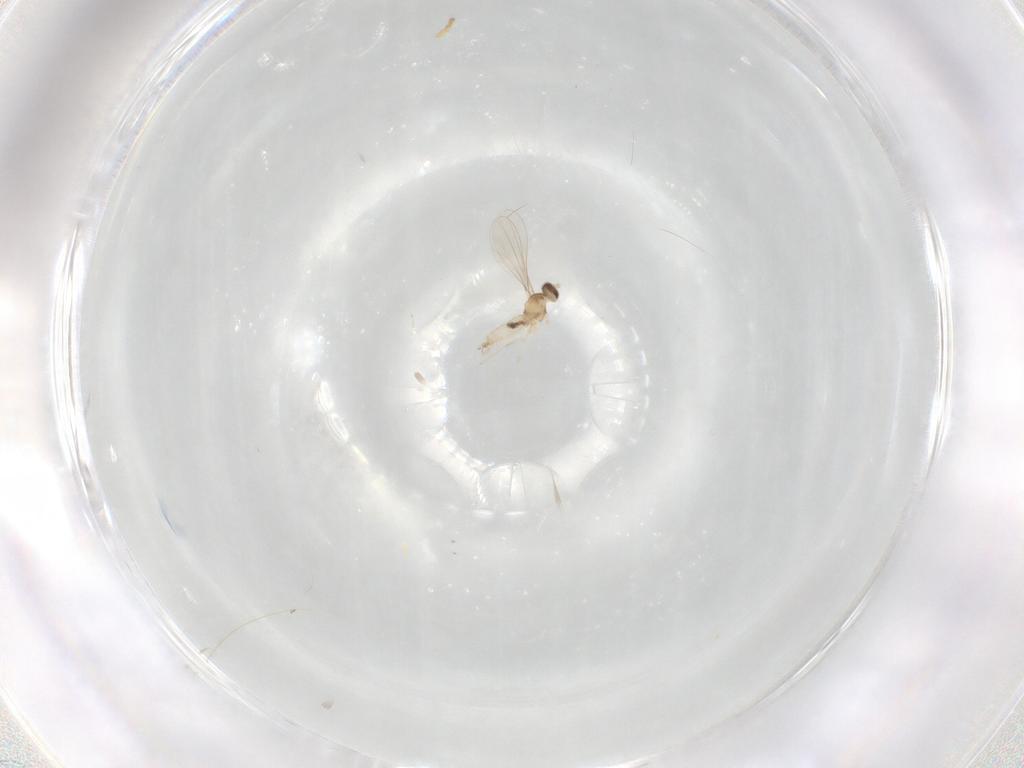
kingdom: Animalia
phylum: Arthropoda
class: Insecta
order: Diptera
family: Cecidomyiidae
